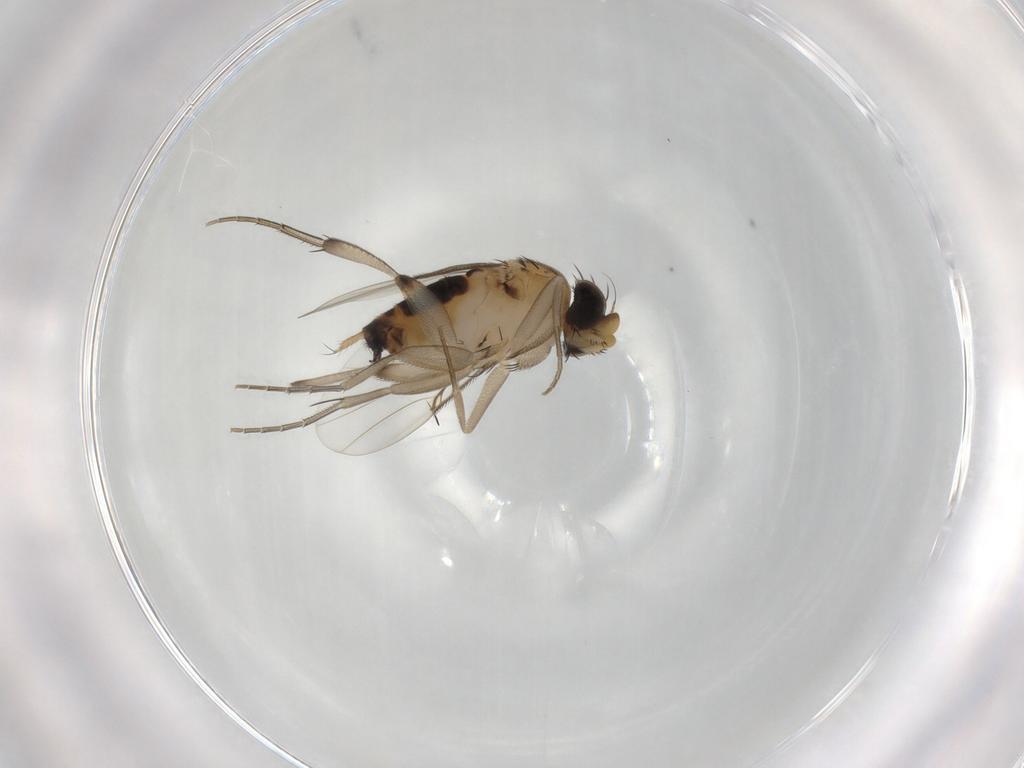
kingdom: Animalia
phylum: Arthropoda
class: Insecta
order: Diptera
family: Phoridae
